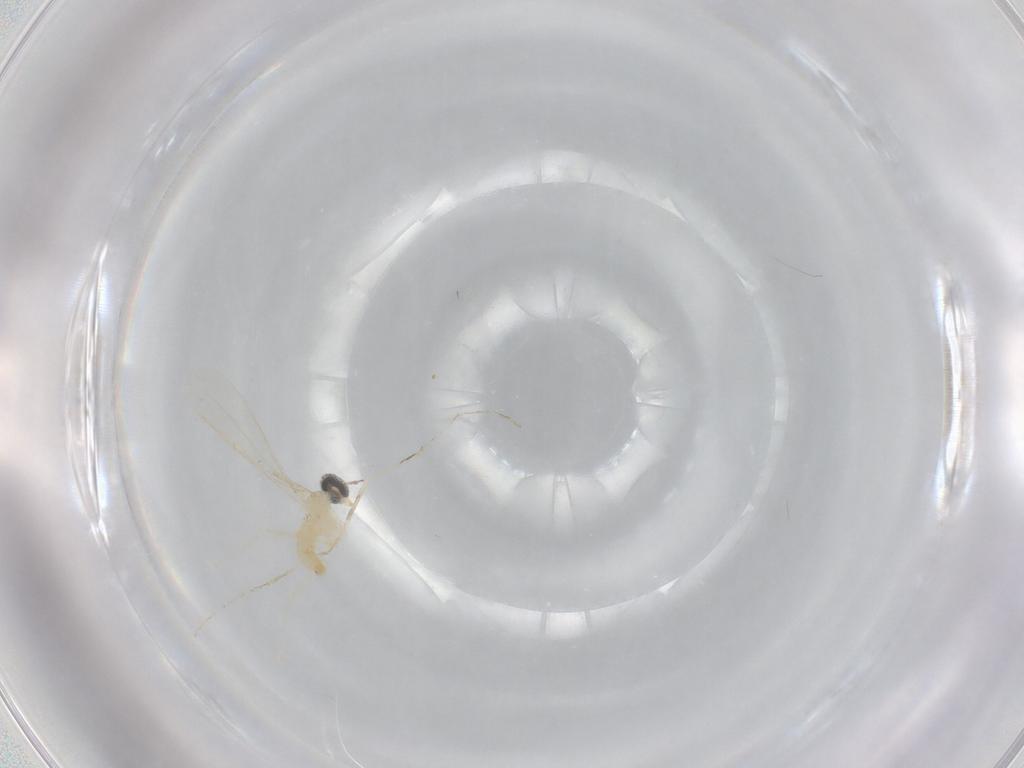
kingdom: Animalia
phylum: Arthropoda
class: Insecta
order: Diptera
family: Cecidomyiidae
